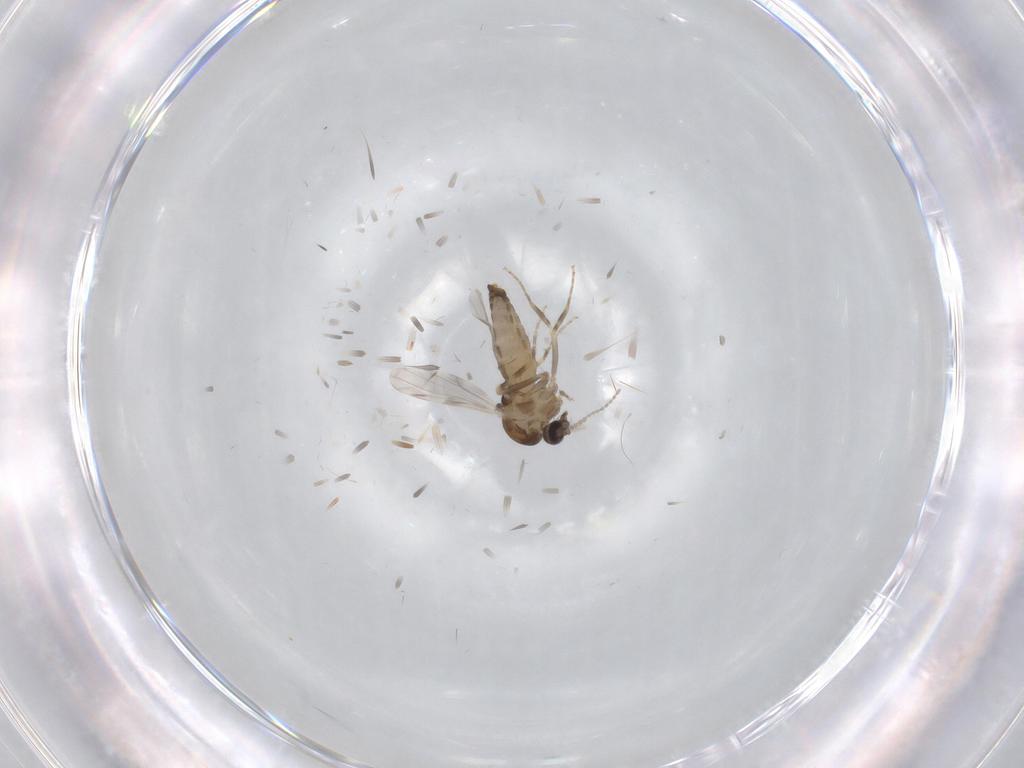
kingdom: Animalia
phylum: Arthropoda
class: Insecta
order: Diptera
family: Ceratopogonidae
